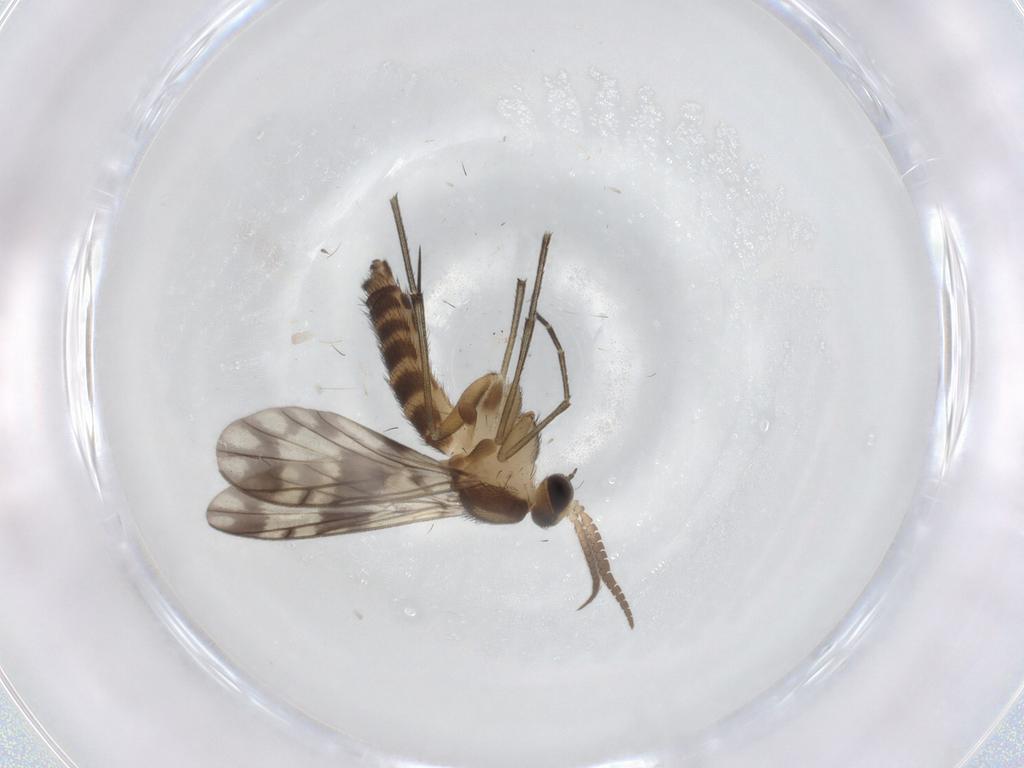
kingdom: Animalia
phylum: Arthropoda
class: Insecta
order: Diptera
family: Keroplatidae
